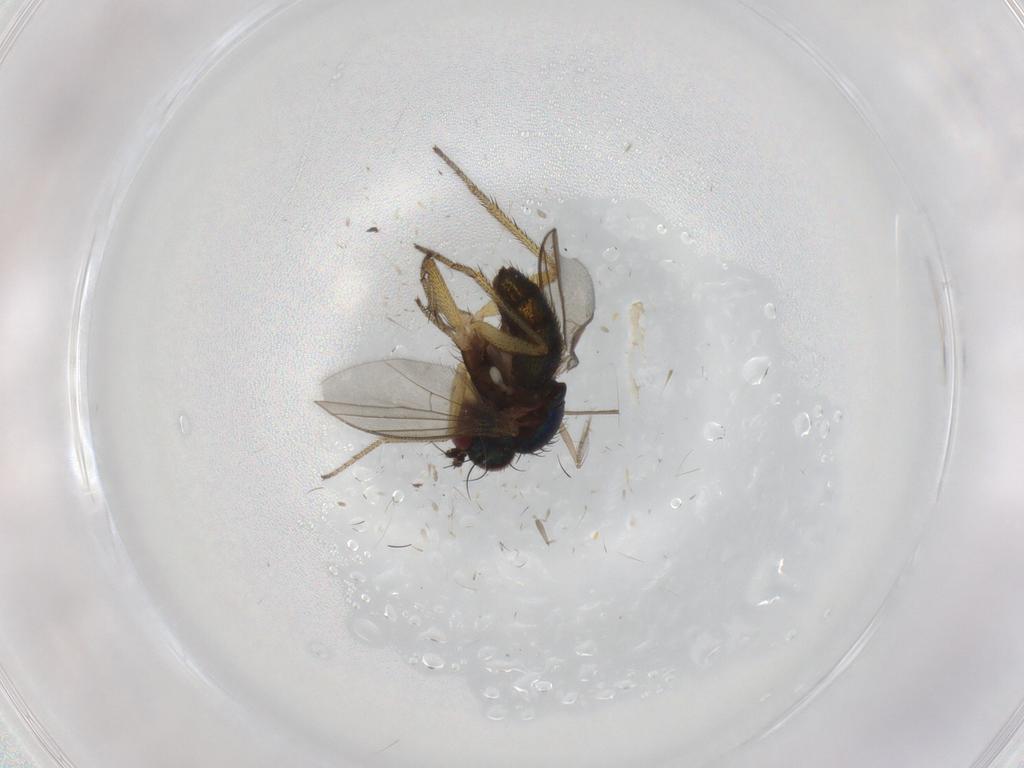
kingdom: Animalia
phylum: Arthropoda
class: Insecta
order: Diptera
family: Chironomidae
